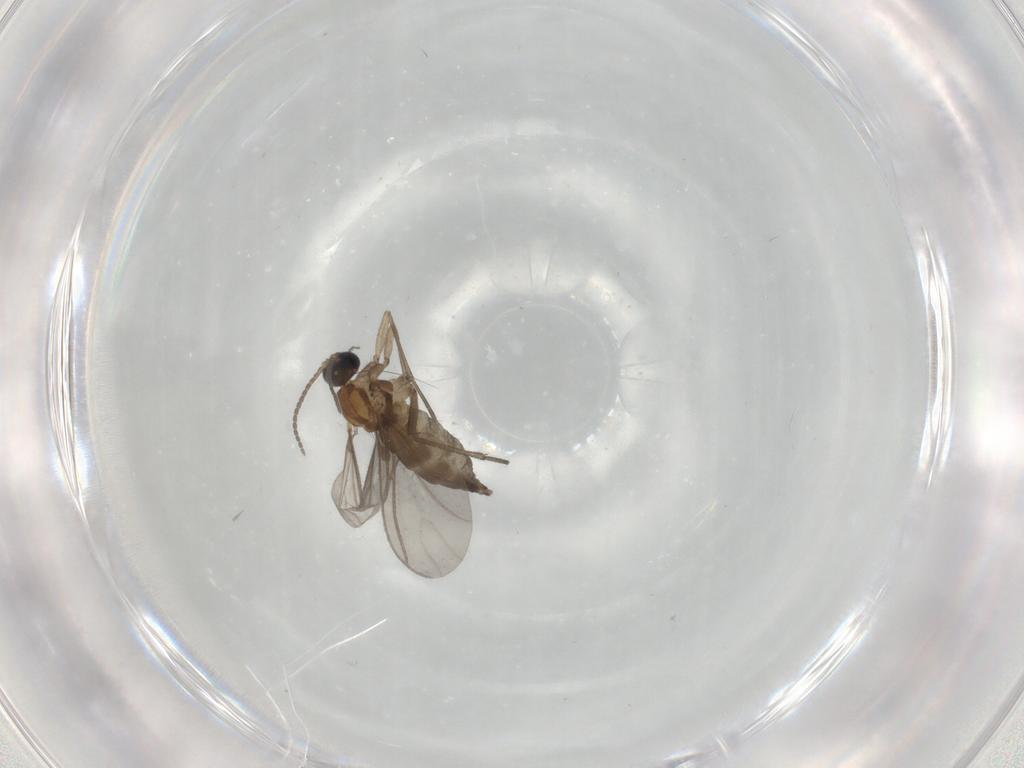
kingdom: Animalia
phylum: Arthropoda
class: Insecta
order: Diptera
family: Sciaridae
